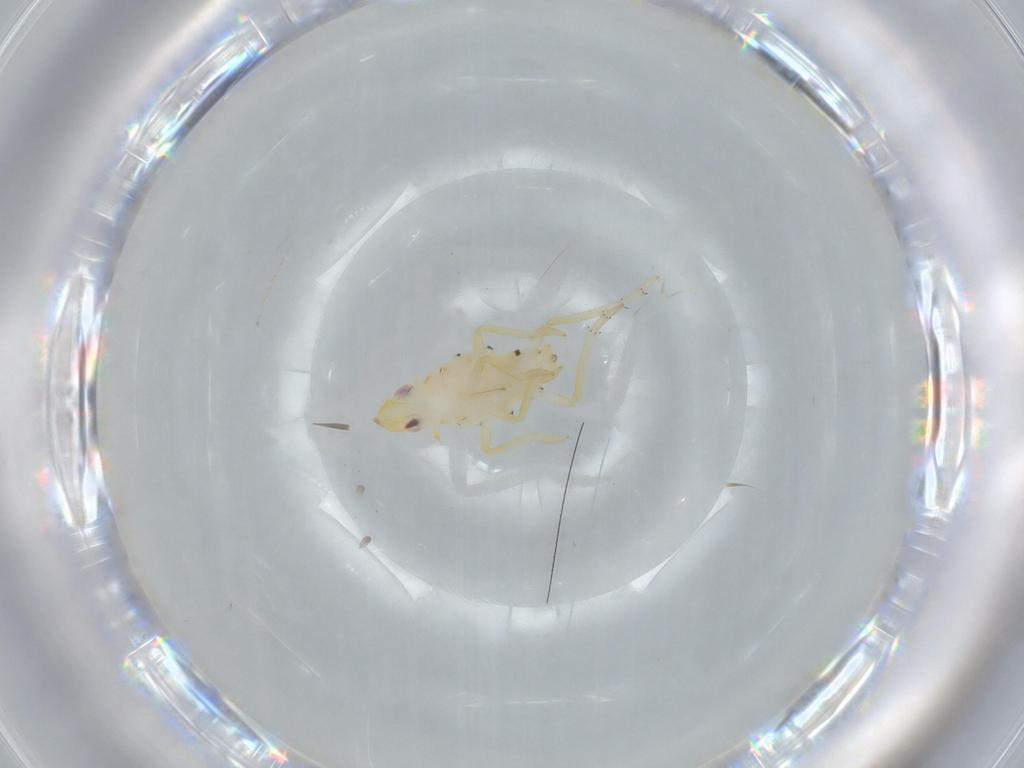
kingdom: Animalia
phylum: Arthropoda
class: Insecta
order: Hemiptera
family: Tropiduchidae
